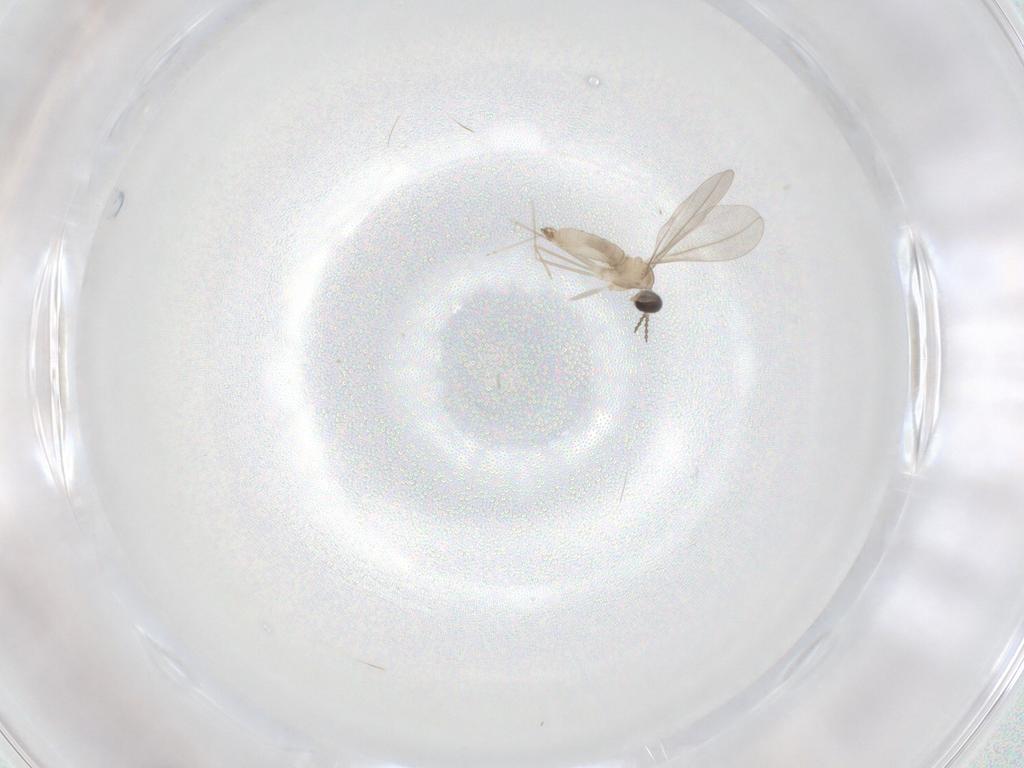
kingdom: Animalia
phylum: Arthropoda
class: Insecta
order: Diptera
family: Cecidomyiidae
